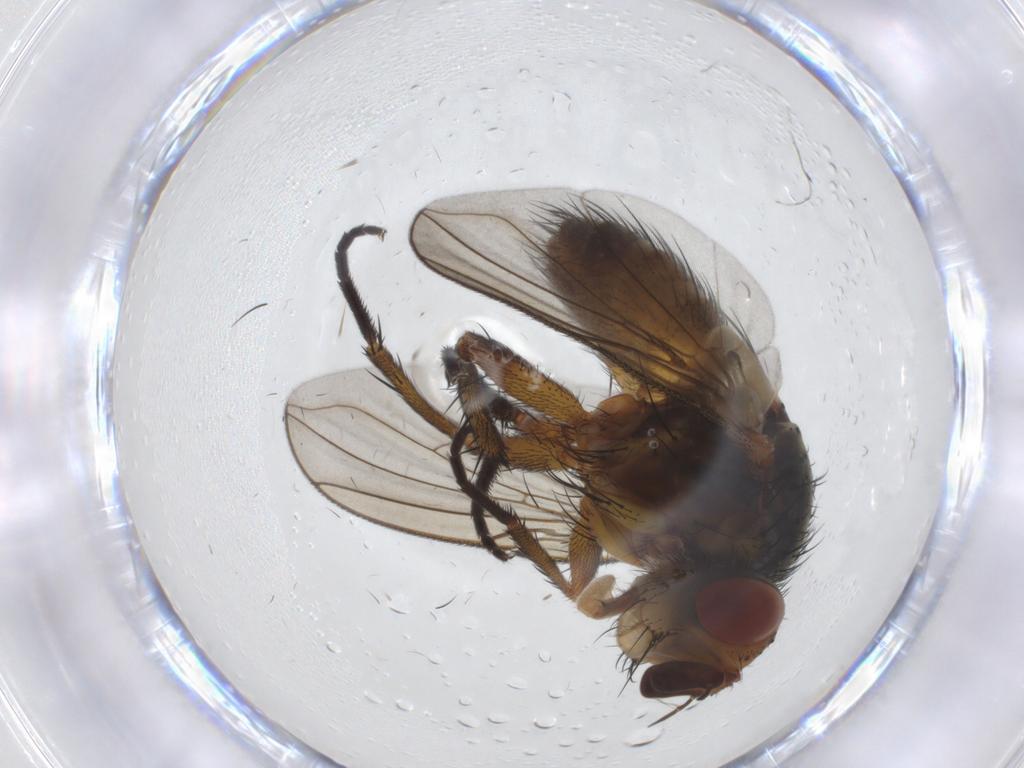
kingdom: Animalia
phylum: Arthropoda
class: Insecta
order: Diptera
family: Tachinidae
